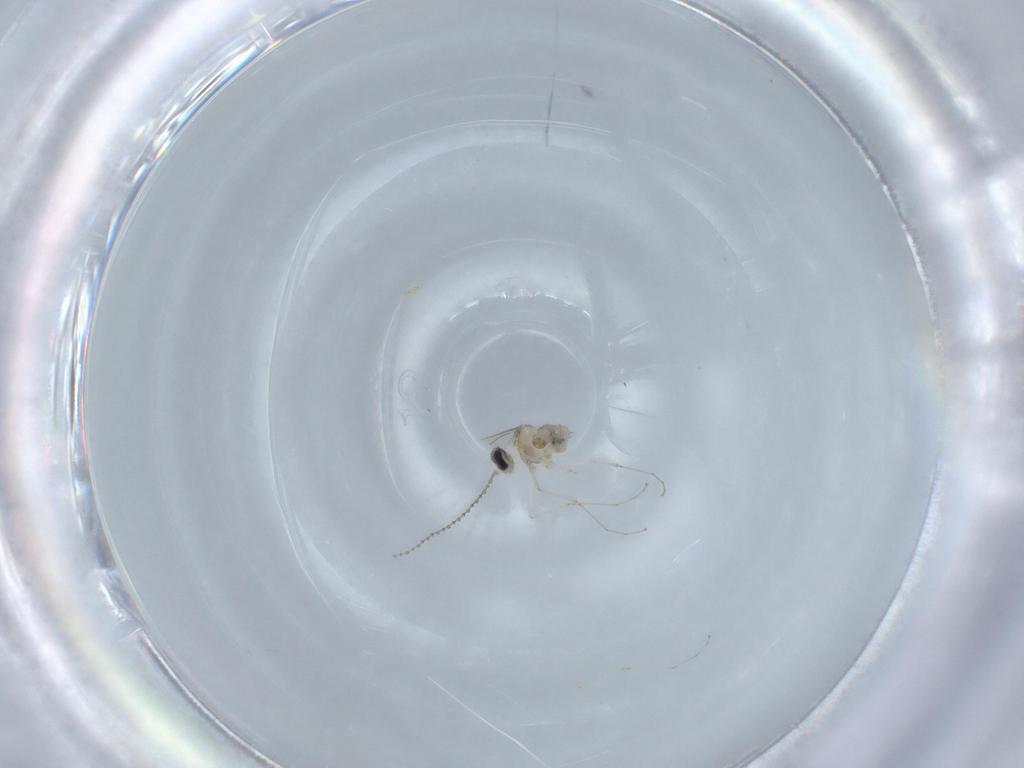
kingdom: Animalia
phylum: Arthropoda
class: Insecta
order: Diptera
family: Cecidomyiidae
